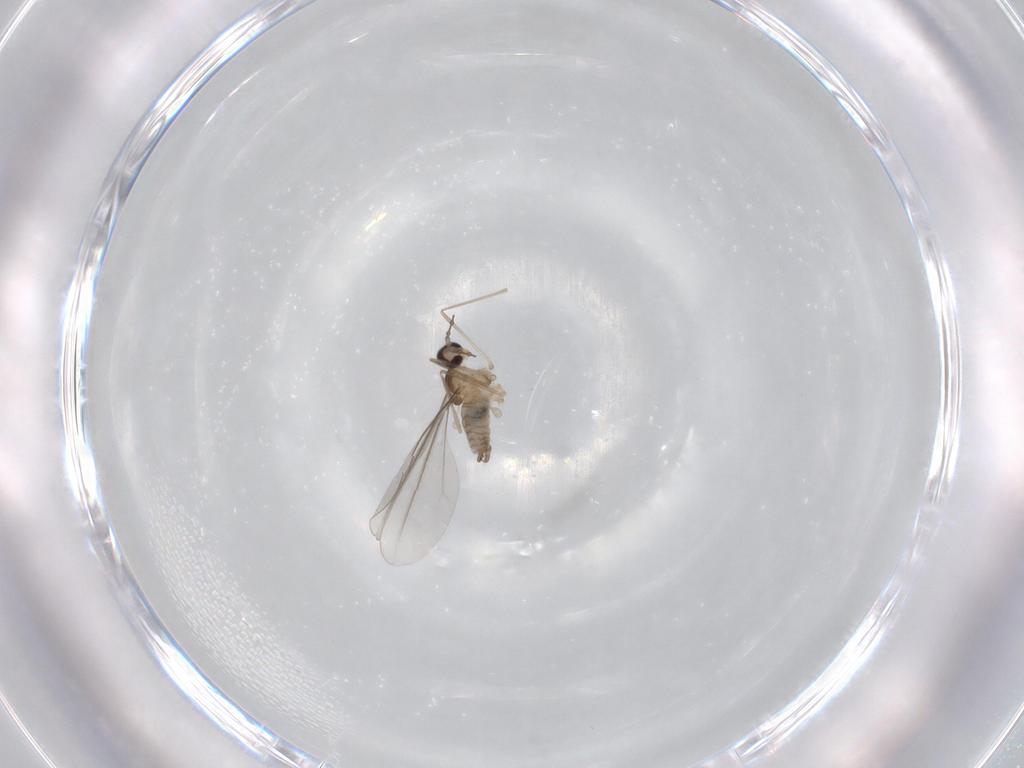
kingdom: Animalia
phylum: Arthropoda
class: Insecta
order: Diptera
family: Cecidomyiidae
